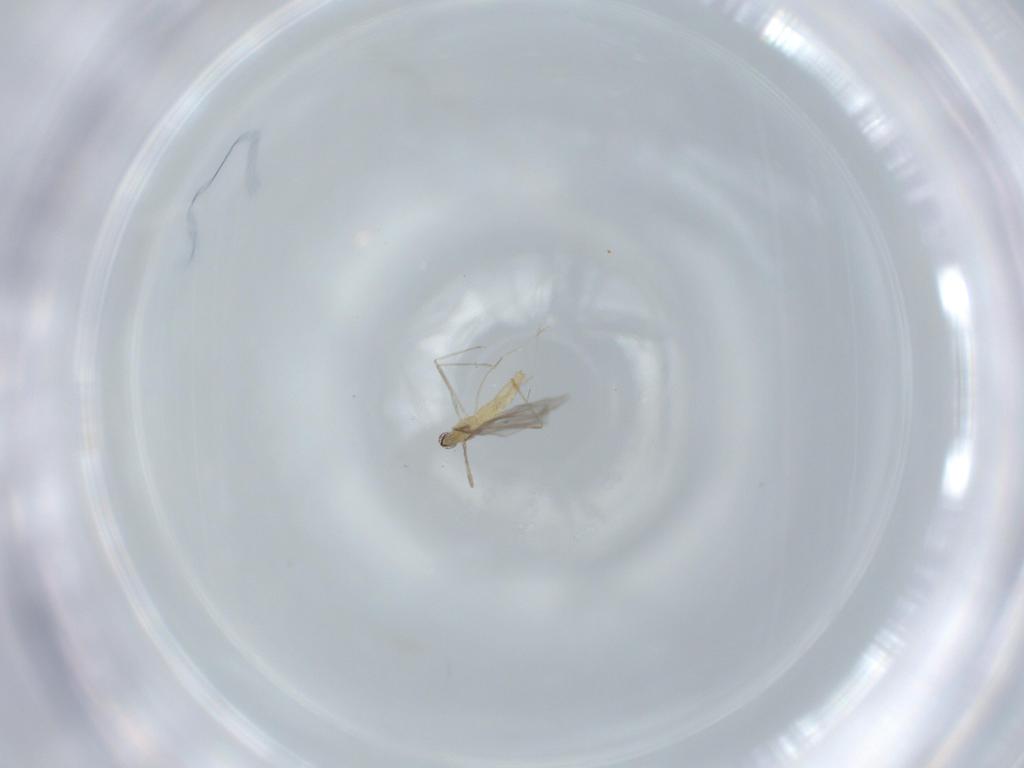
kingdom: Animalia
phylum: Arthropoda
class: Insecta
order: Diptera
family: Cecidomyiidae
